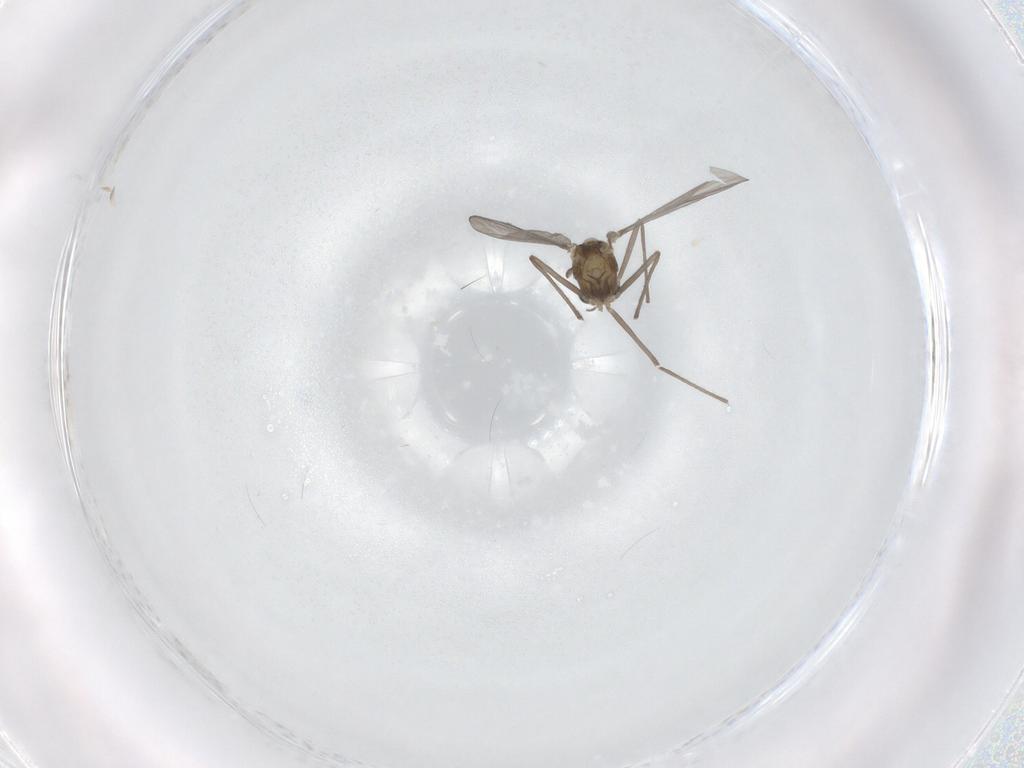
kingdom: Animalia
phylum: Arthropoda
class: Insecta
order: Diptera
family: Chironomidae
